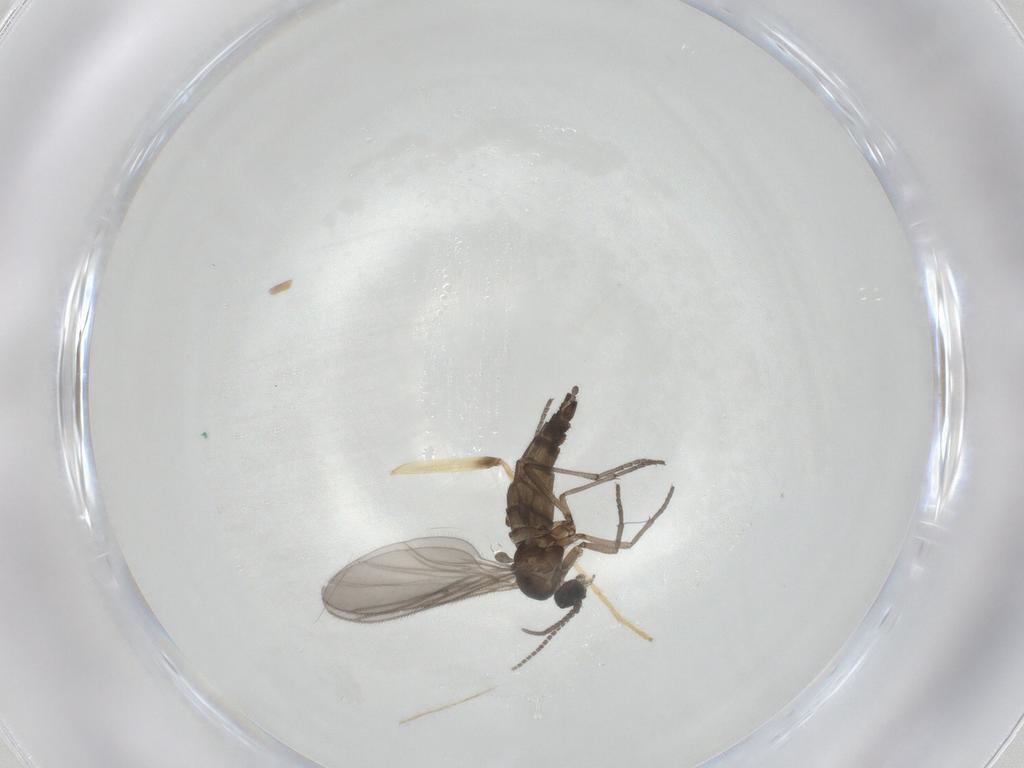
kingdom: Animalia
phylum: Arthropoda
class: Insecta
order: Diptera
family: Sciaridae
